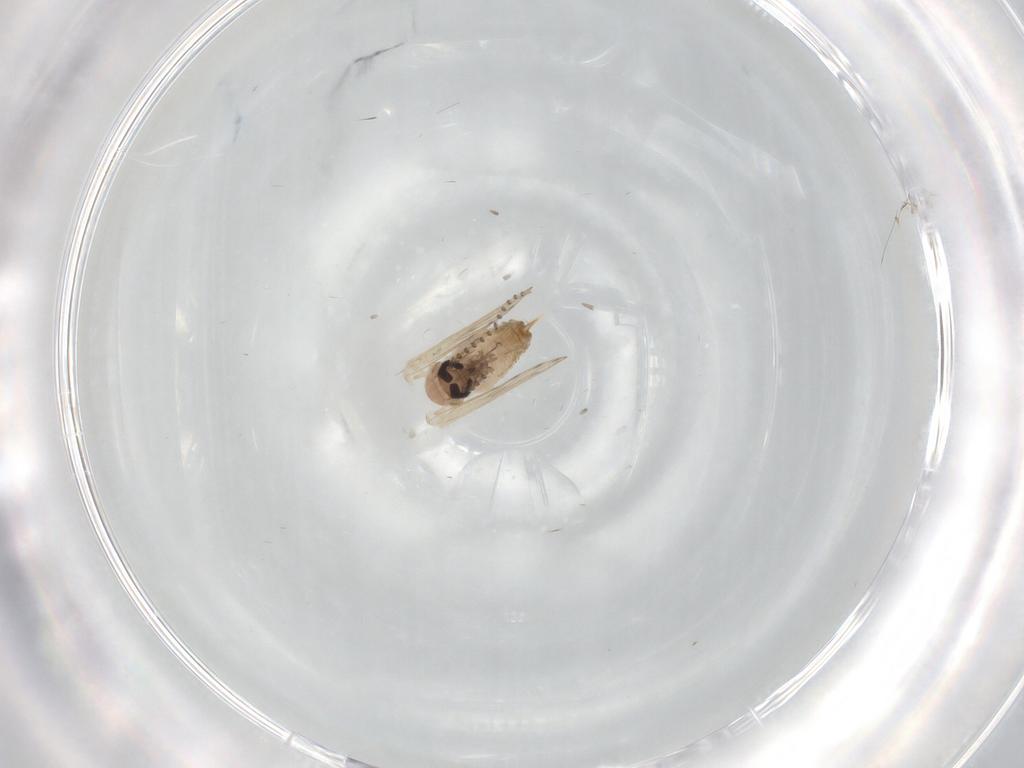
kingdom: Animalia
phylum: Arthropoda
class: Insecta
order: Diptera
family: Psychodidae
